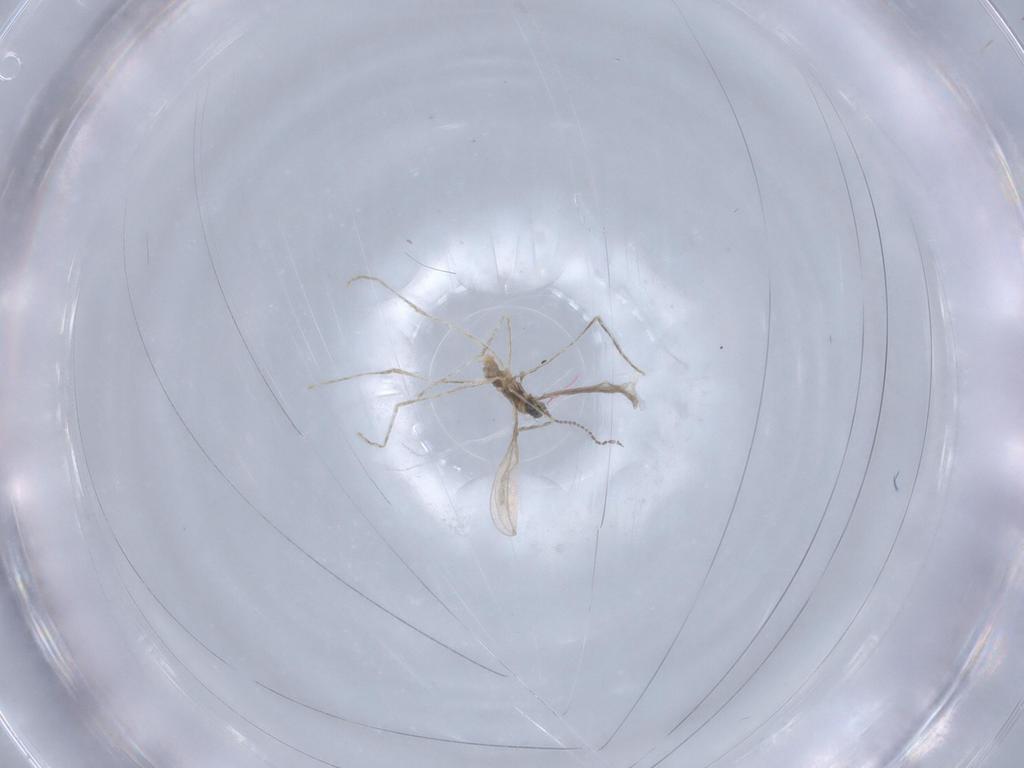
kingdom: Animalia
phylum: Arthropoda
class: Insecta
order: Diptera
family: Cecidomyiidae
